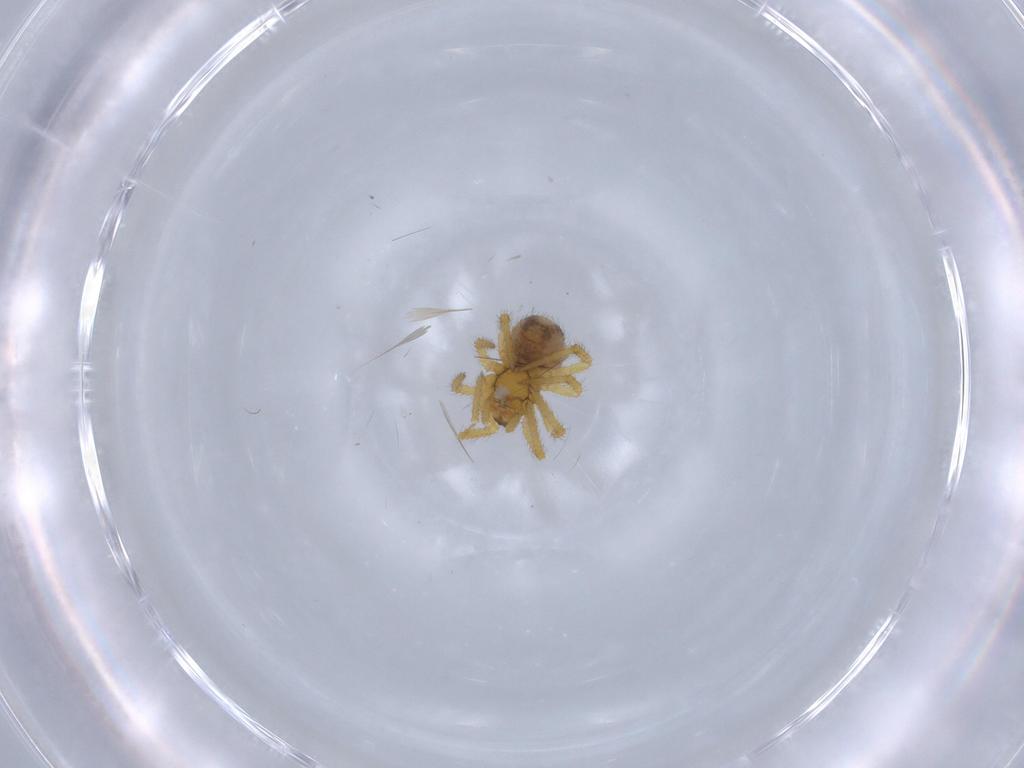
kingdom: Animalia
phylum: Arthropoda
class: Arachnida
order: Araneae
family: Theridiidae
